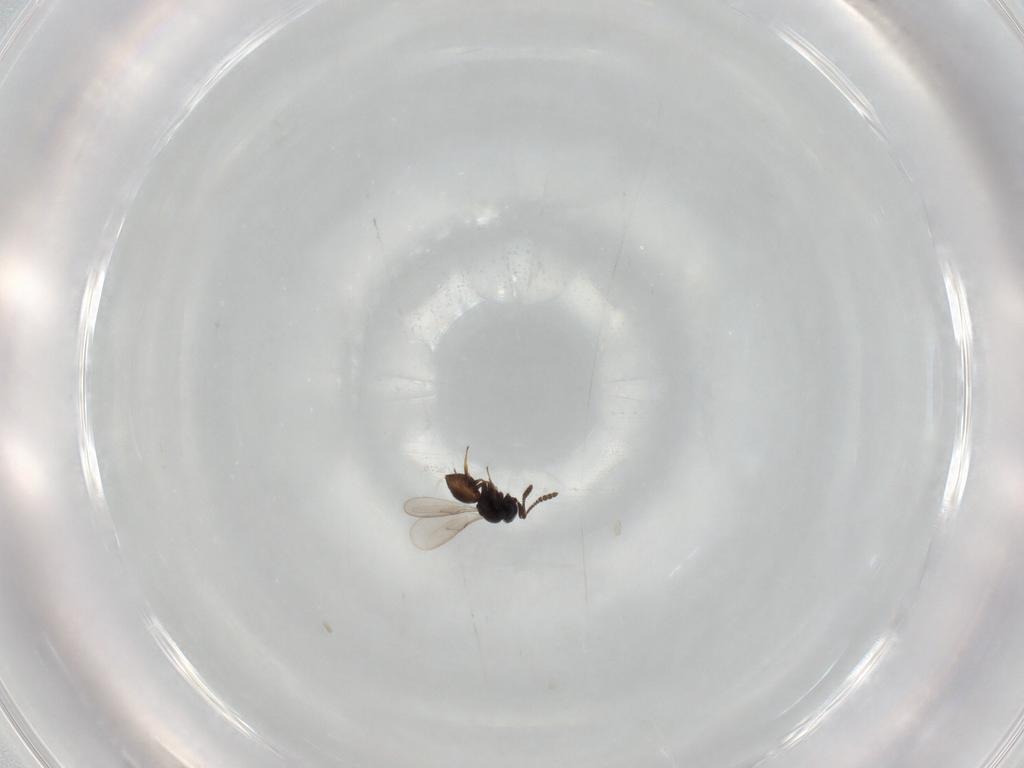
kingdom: Animalia
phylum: Arthropoda
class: Insecta
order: Hymenoptera
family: Scelionidae
